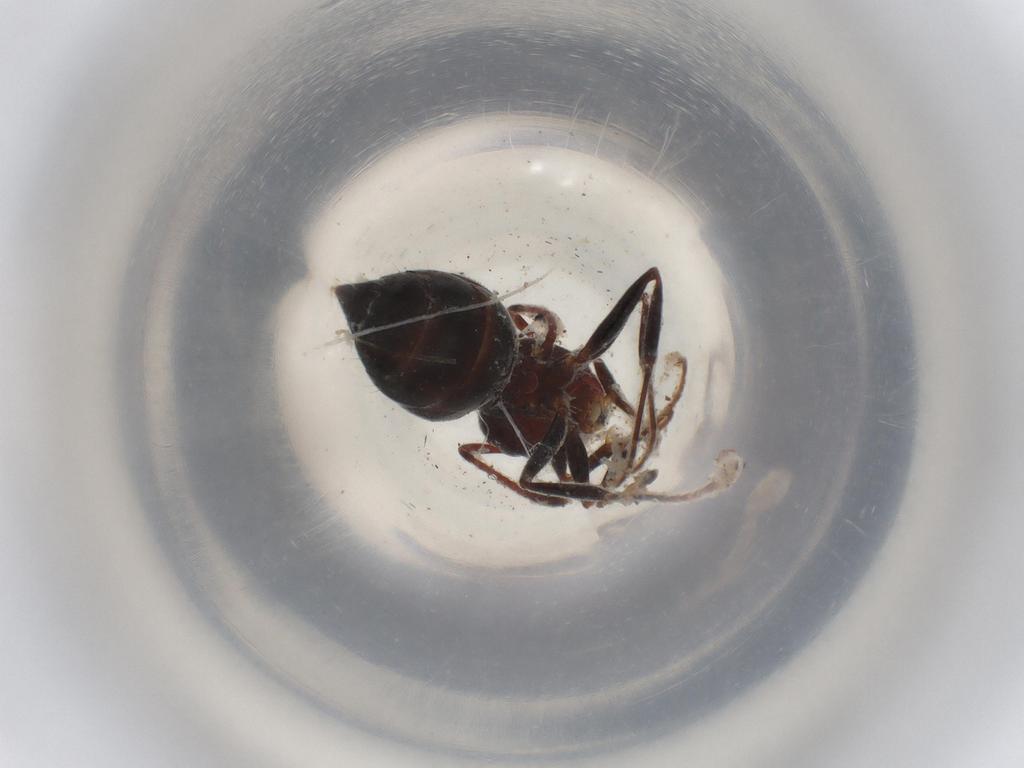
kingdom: Animalia
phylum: Arthropoda
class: Insecta
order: Hymenoptera
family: Formicidae
